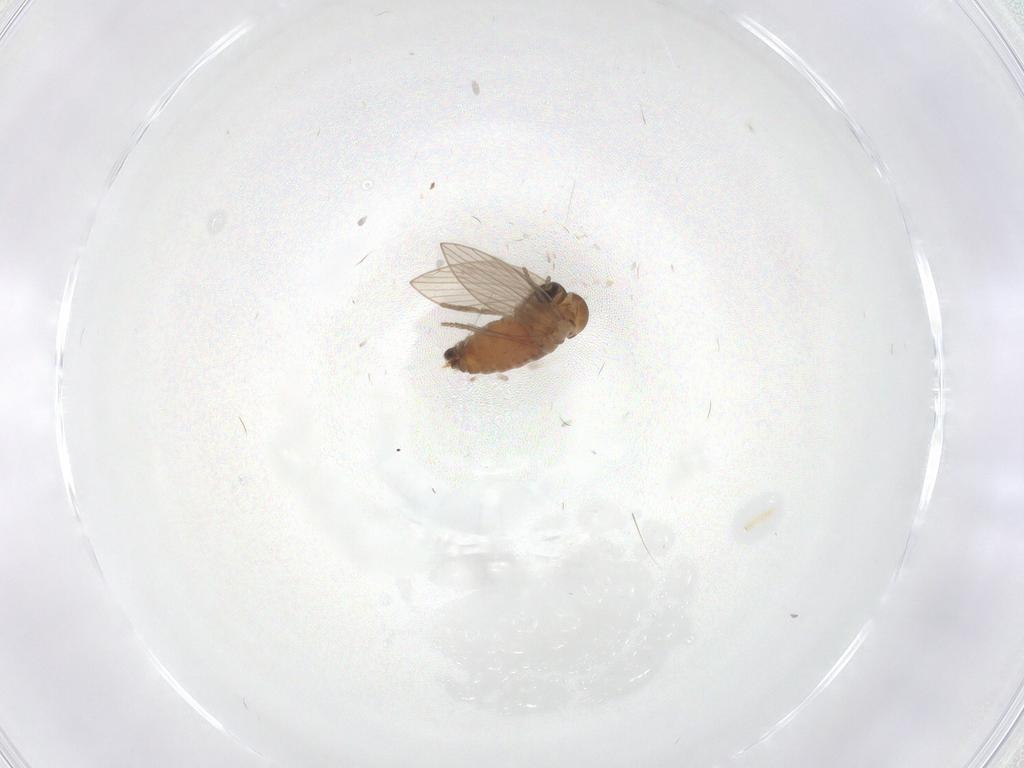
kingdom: Animalia
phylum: Arthropoda
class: Insecta
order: Diptera
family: Psychodidae
